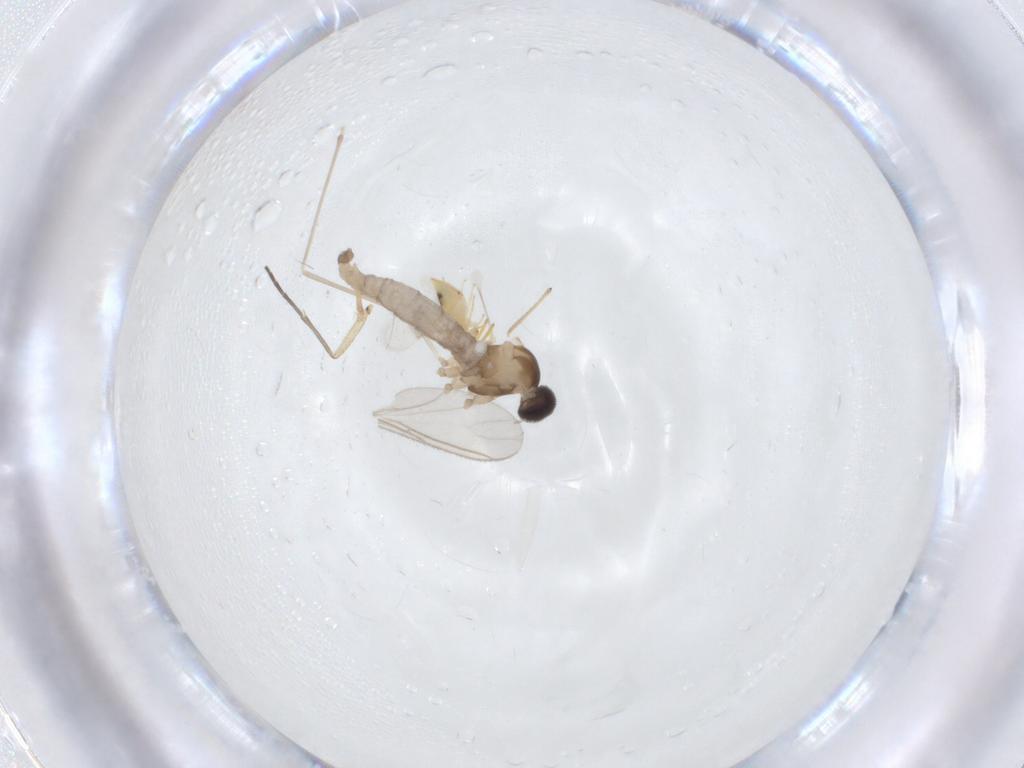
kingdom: Animalia
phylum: Arthropoda
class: Insecta
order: Diptera
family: Cecidomyiidae
